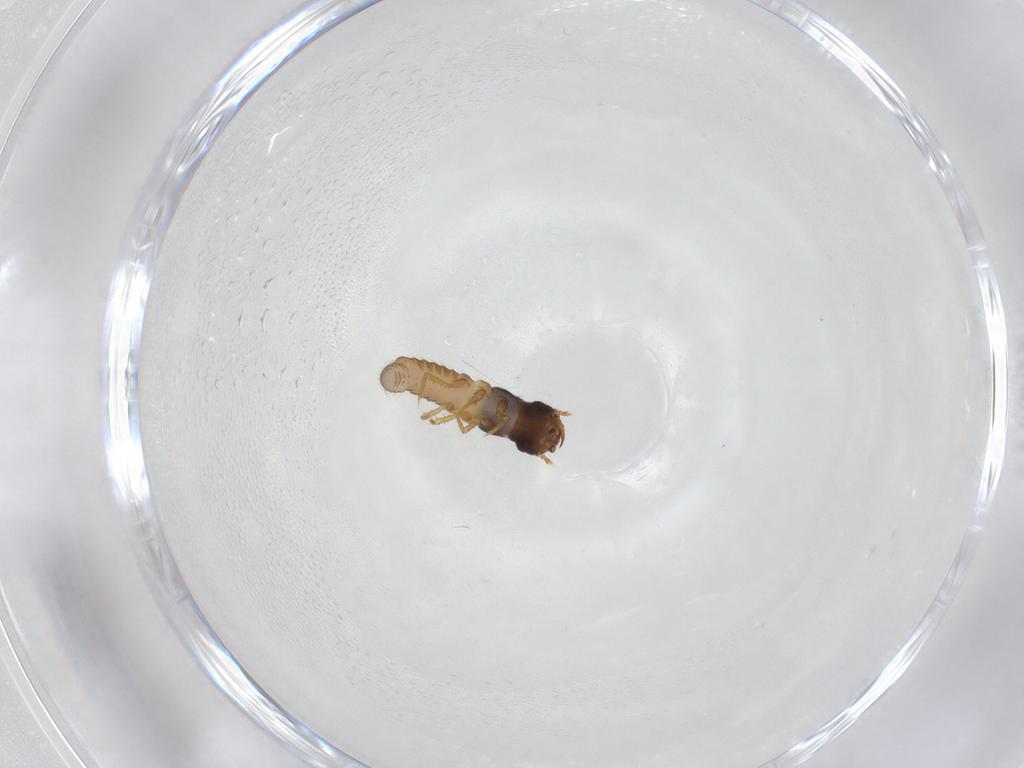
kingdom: Animalia
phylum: Arthropoda
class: Insecta
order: Coleoptera
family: Meloidae
